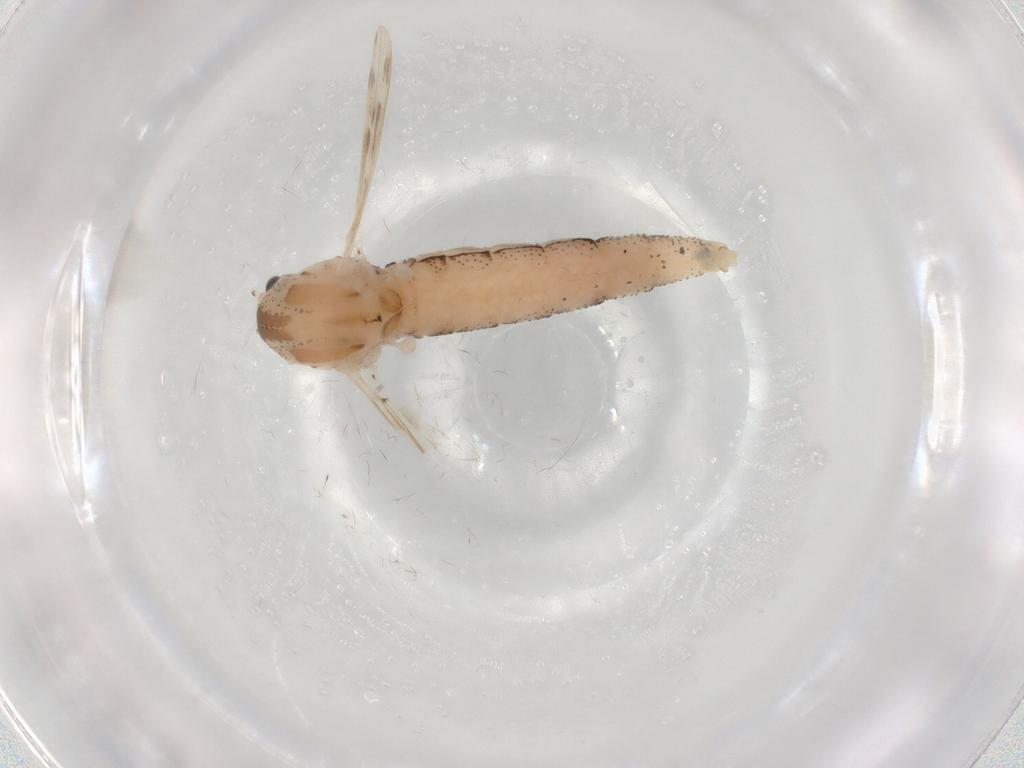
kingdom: Animalia
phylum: Arthropoda
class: Insecta
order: Diptera
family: Chaoboridae
